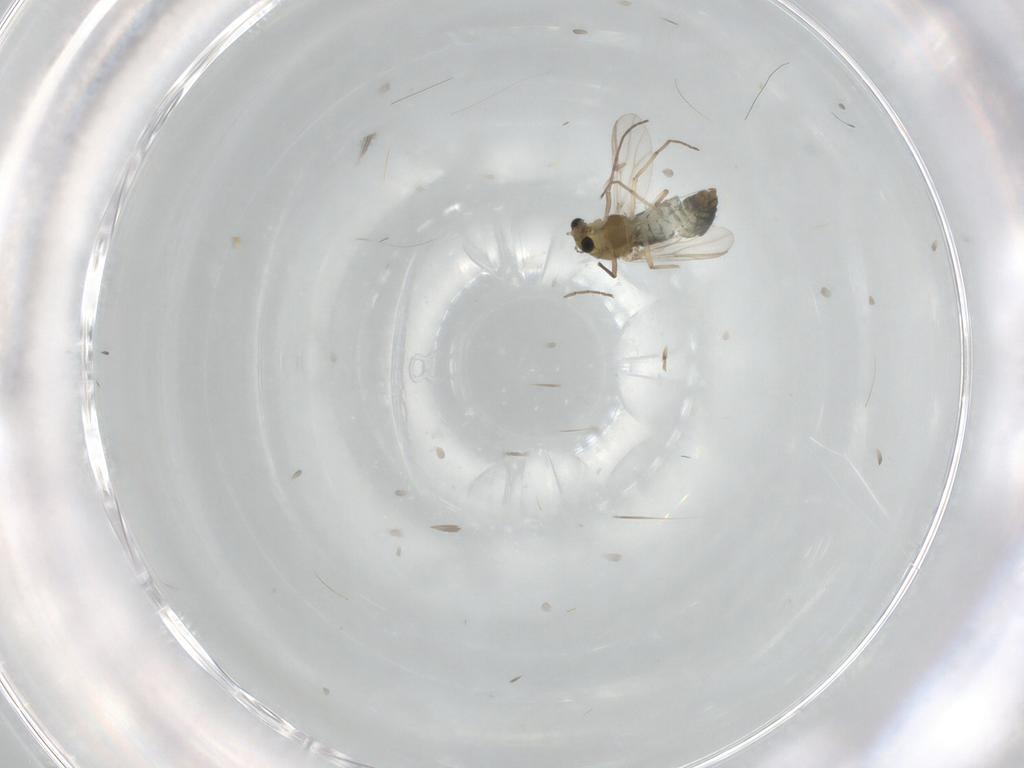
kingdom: Animalia
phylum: Arthropoda
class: Insecta
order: Diptera
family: Chironomidae
